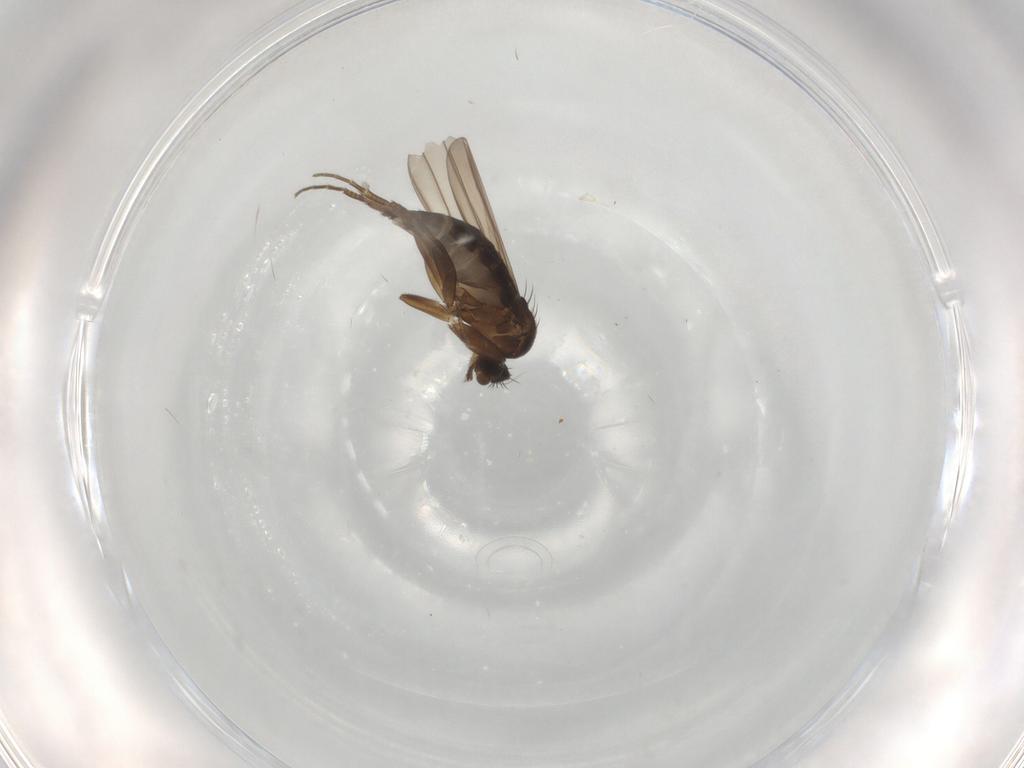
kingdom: Animalia
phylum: Arthropoda
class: Insecta
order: Diptera
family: Limoniidae
